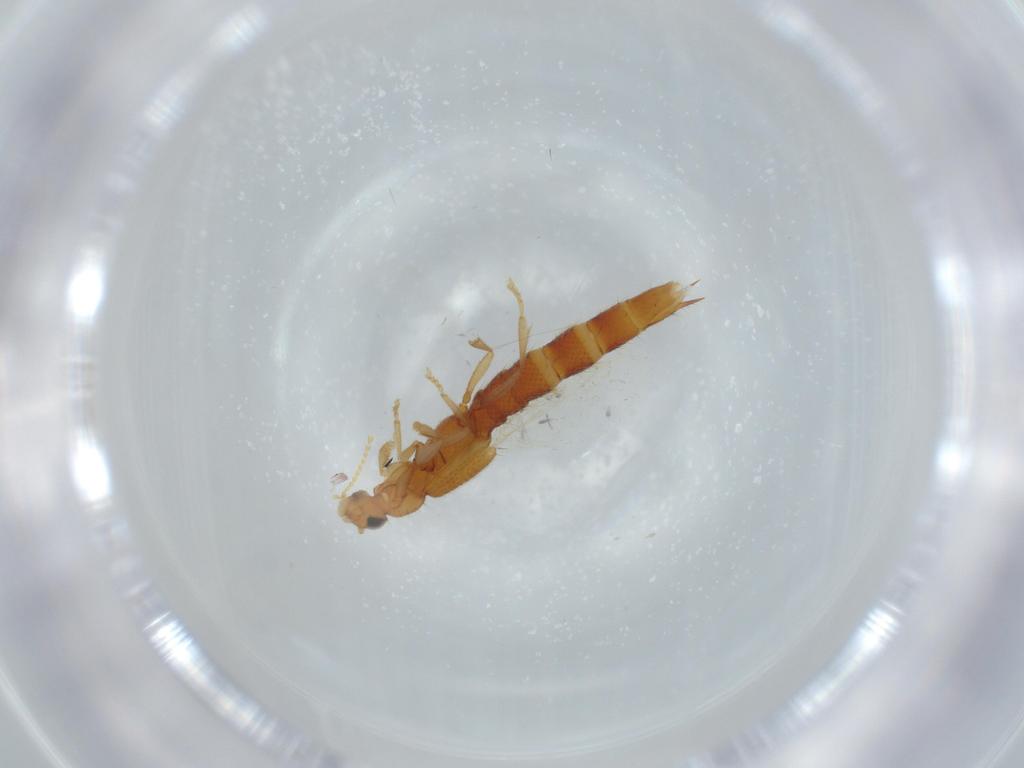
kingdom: Animalia
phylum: Arthropoda
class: Insecta
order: Coleoptera
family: Staphylinidae
